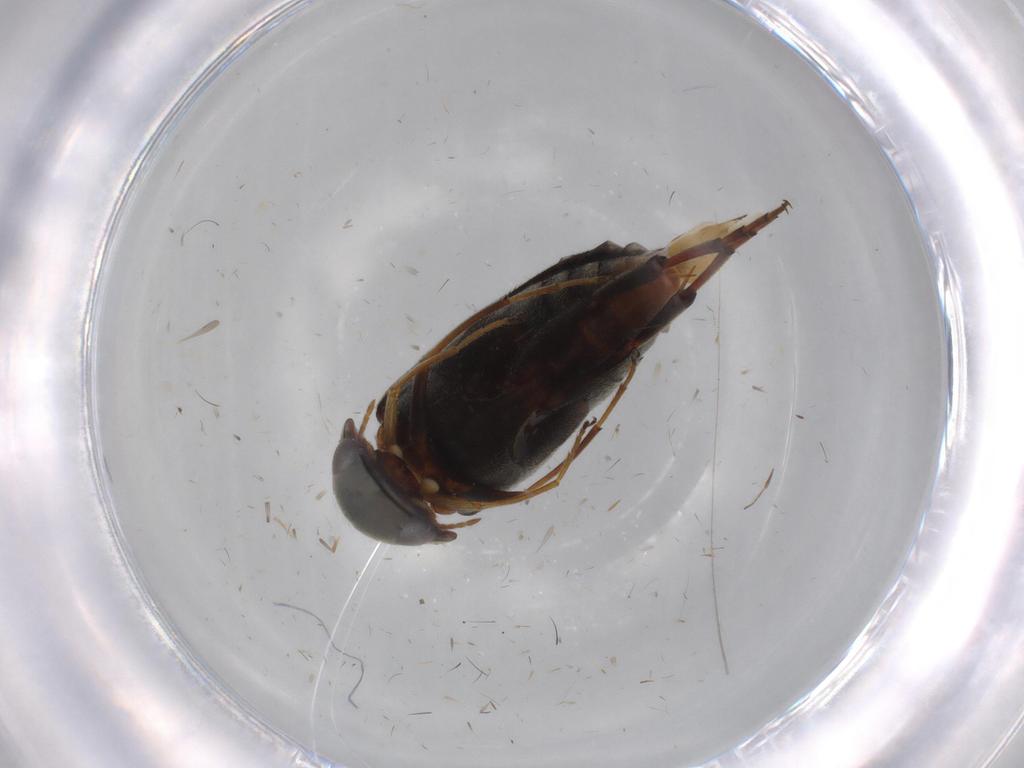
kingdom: Animalia
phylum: Arthropoda
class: Insecta
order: Coleoptera
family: Mordellidae
